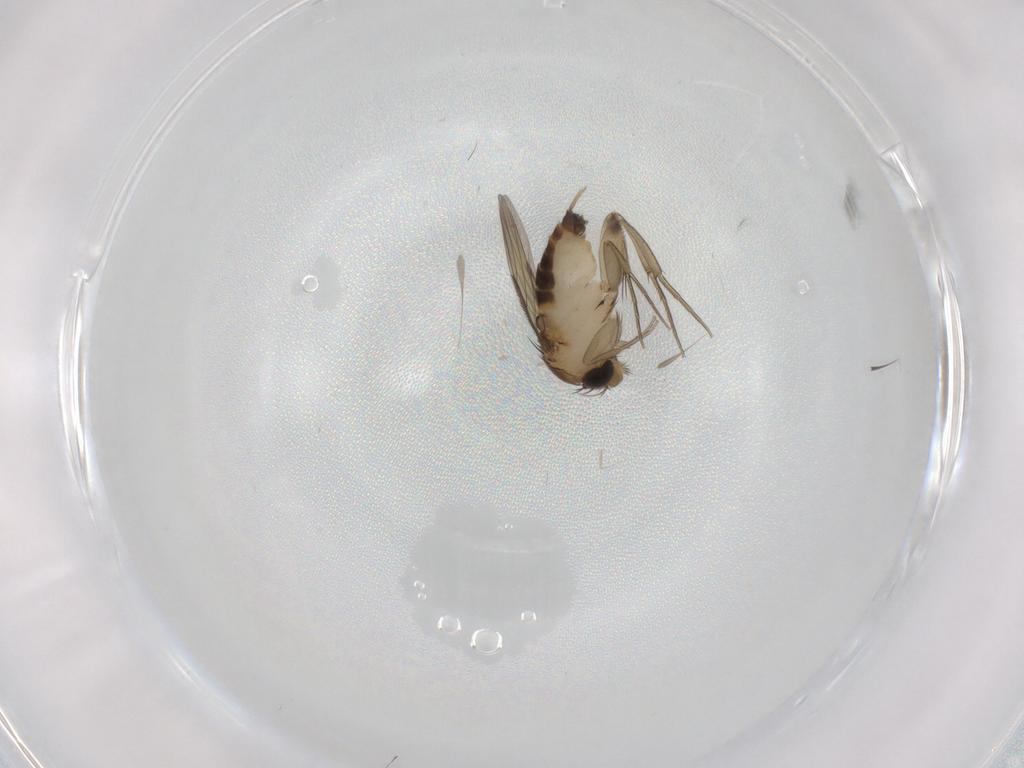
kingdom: Animalia
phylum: Arthropoda
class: Insecta
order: Diptera
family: Phoridae
